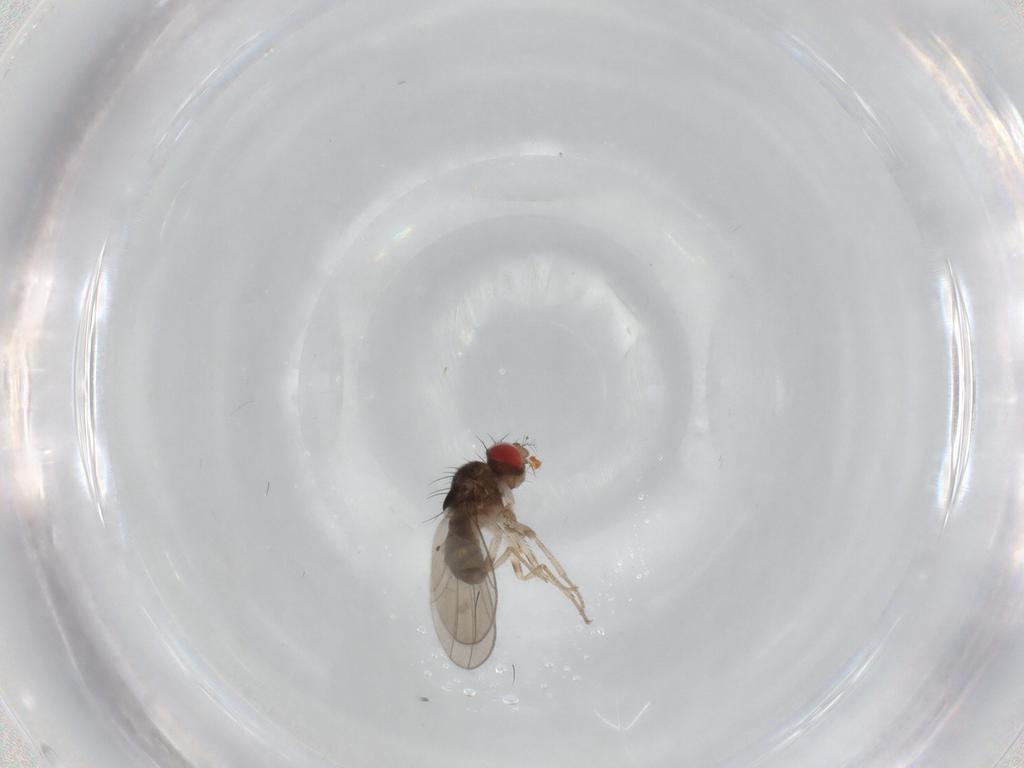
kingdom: Animalia
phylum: Arthropoda
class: Insecta
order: Diptera
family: Drosophilidae
